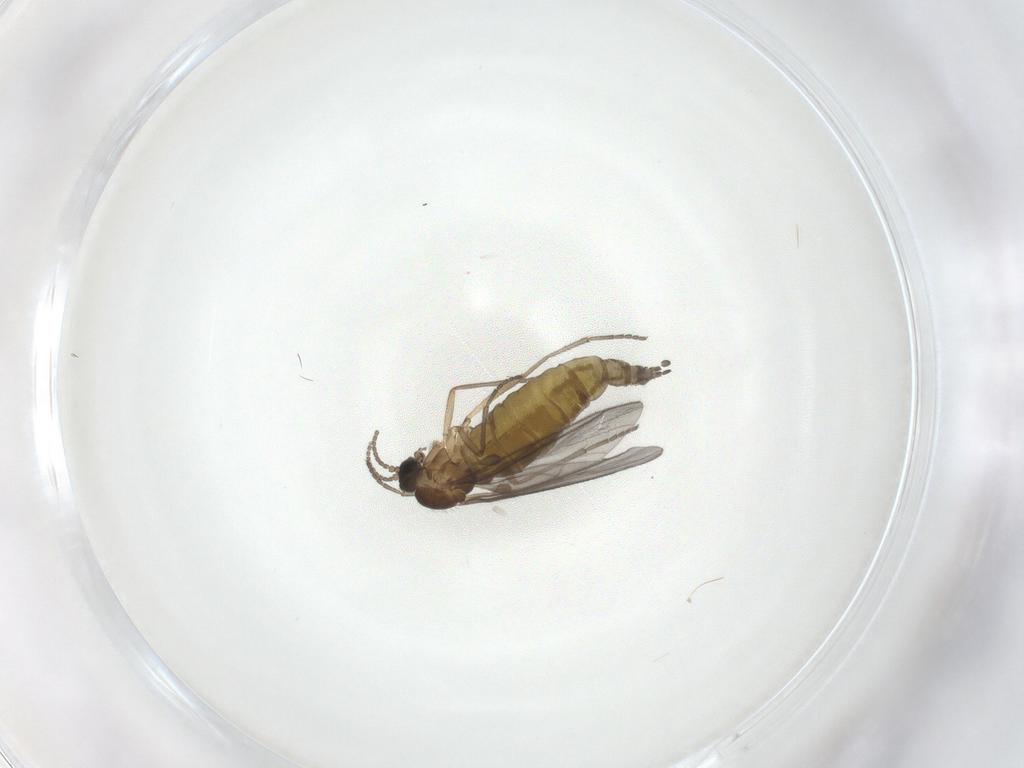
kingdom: Animalia
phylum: Arthropoda
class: Insecta
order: Diptera
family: Sciaridae
